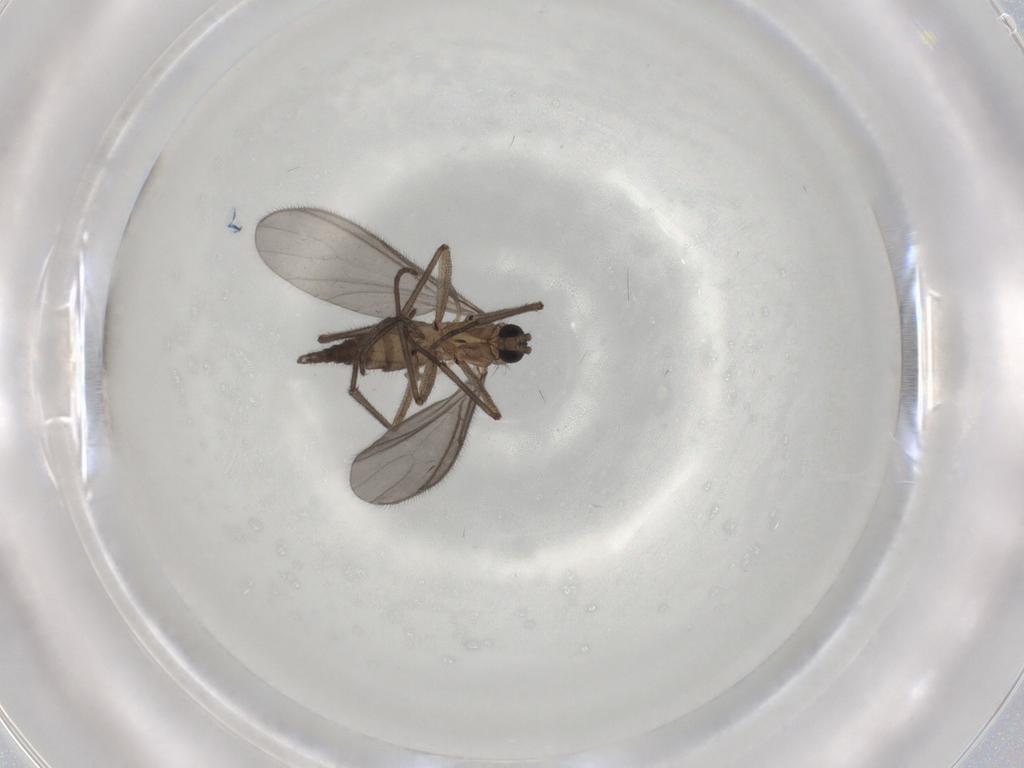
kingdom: Animalia
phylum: Arthropoda
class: Insecta
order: Diptera
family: Sciaridae
